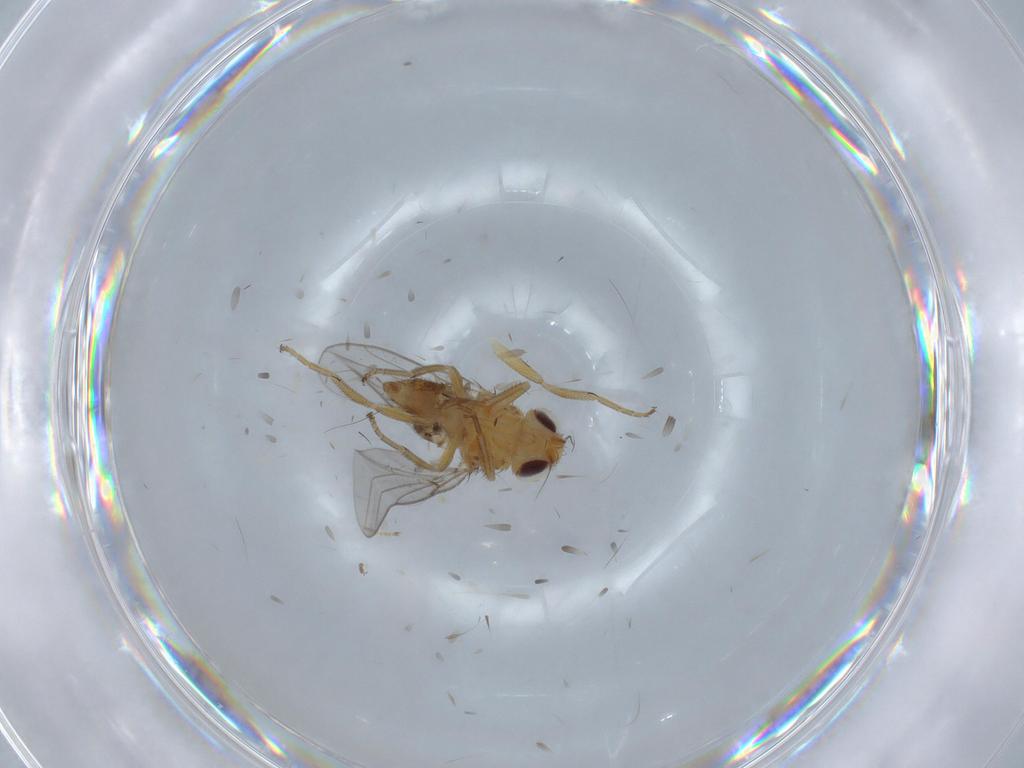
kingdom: Animalia
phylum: Arthropoda
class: Insecta
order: Diptera
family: Chloropidae
